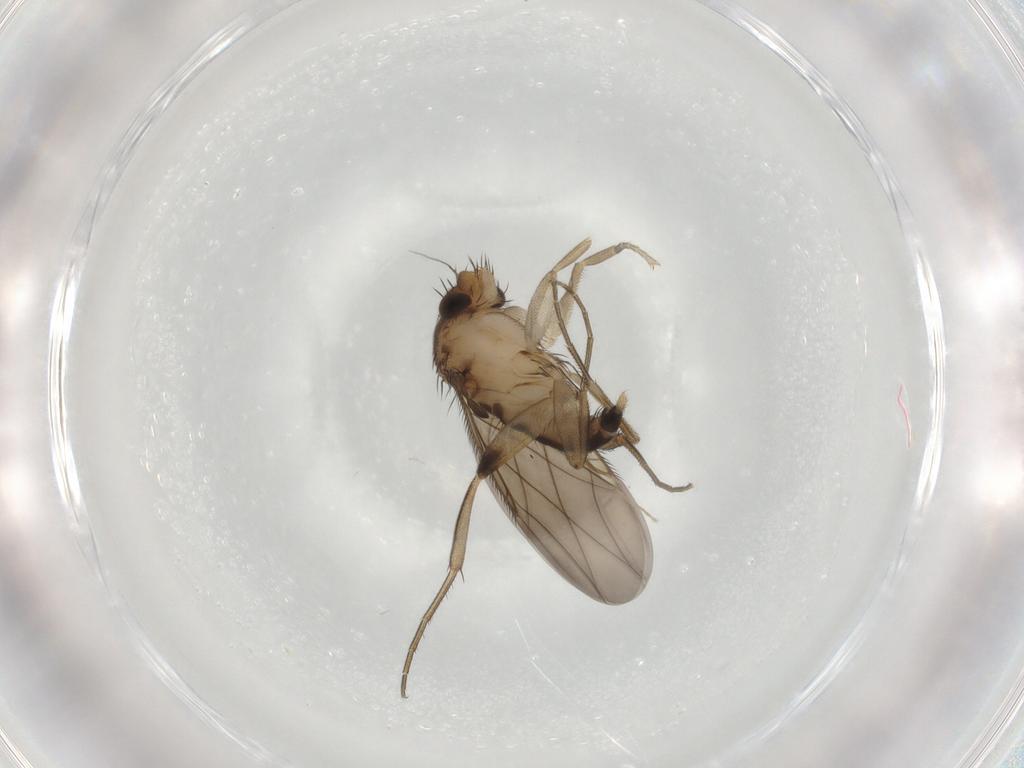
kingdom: Animalia
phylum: Arthropoda
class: Insecta
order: Diptera
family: Phoridae
